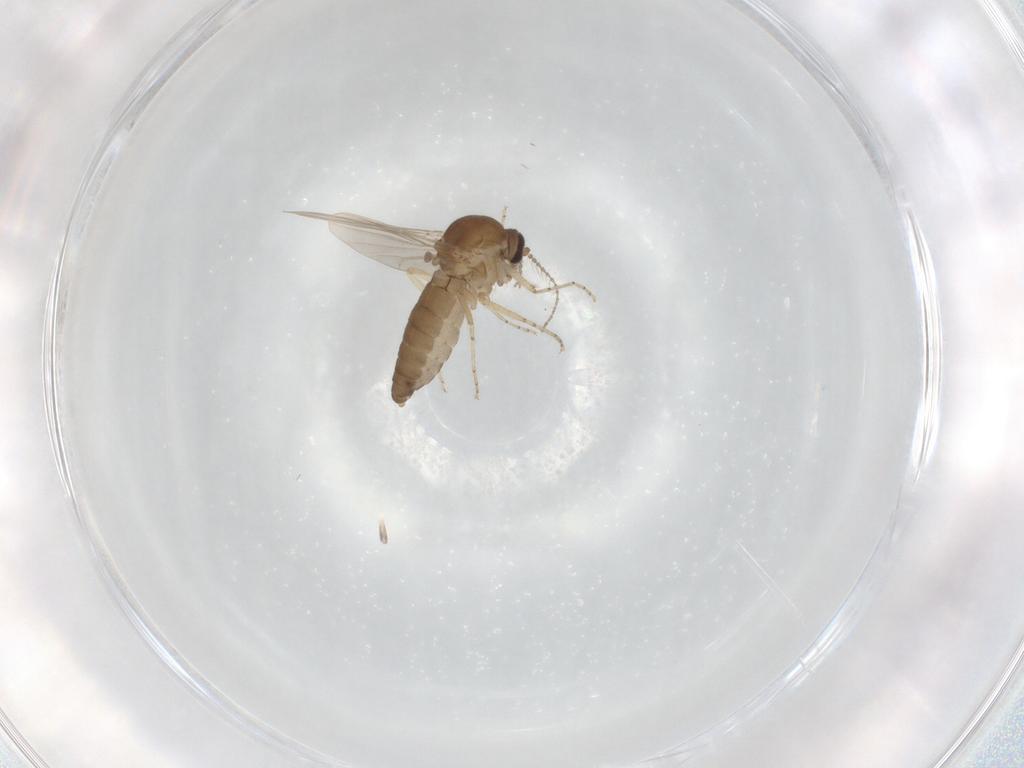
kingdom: Animalia
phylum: Arthropoda
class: Insecta
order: Diptera
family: Ceratopogonidae
